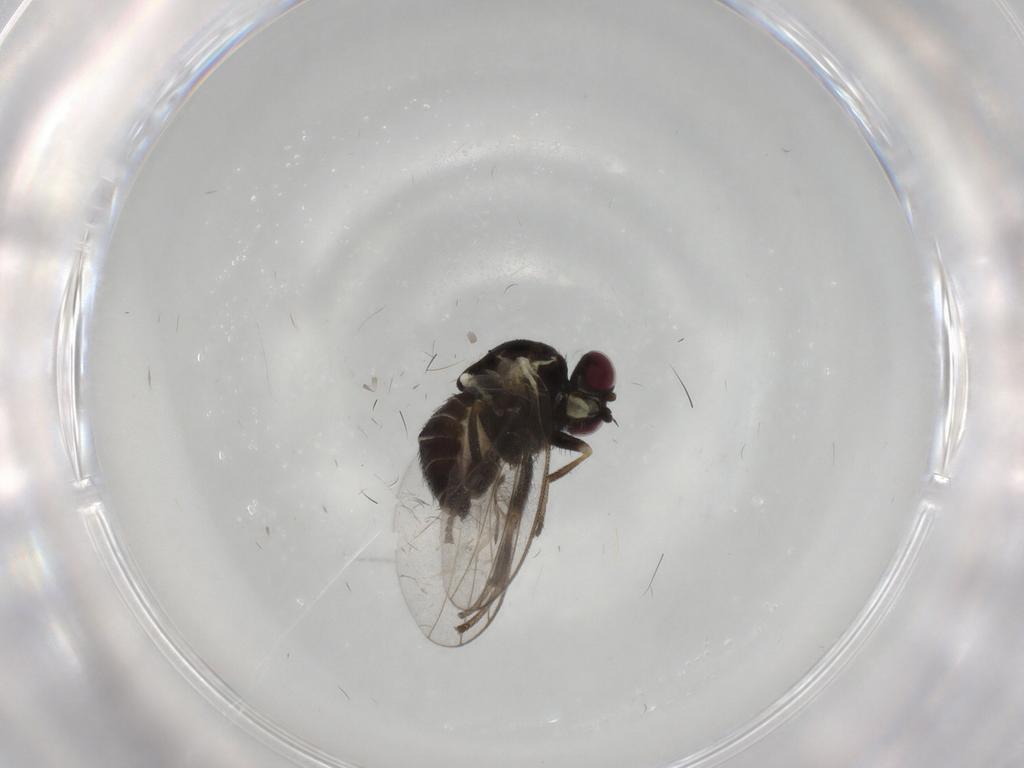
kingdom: Animalia
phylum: Arthropoda
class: Insecta
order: Diptera
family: Agromyzidae
